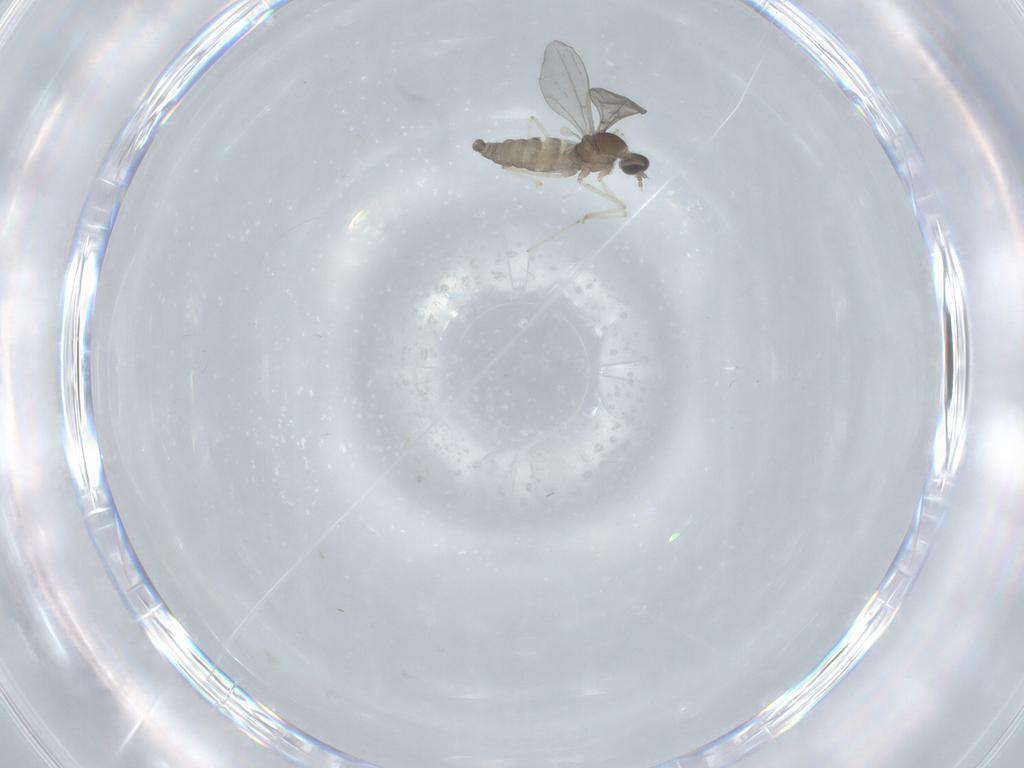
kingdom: Animalia
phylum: Arthropoda
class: Insecta
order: Diptera
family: Cecidomyiidae
